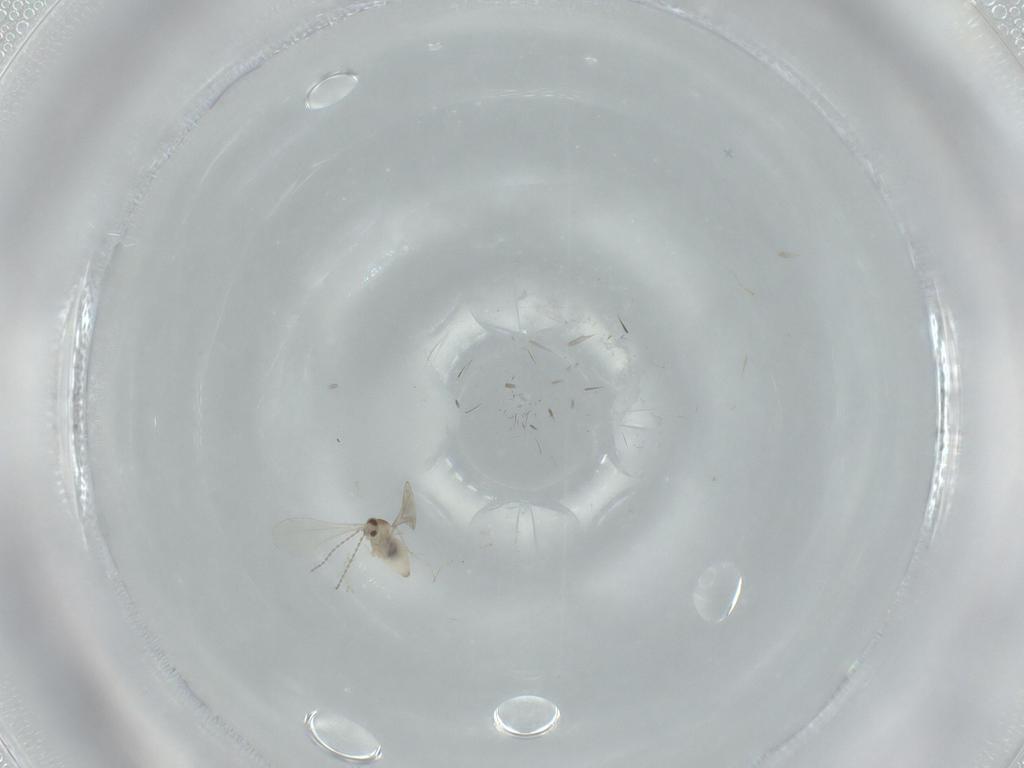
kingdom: Animalia
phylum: Arthropoda
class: Insecta
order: Diptera
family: Cecidomyiidae
